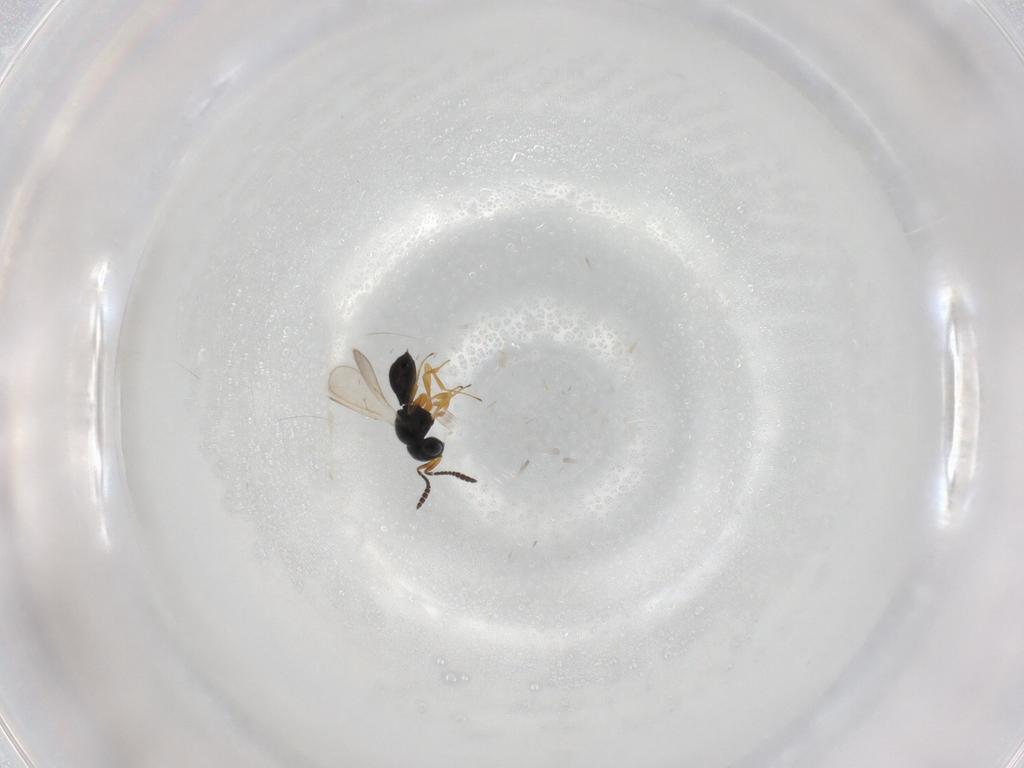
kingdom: Animalia
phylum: Arthropoda
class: Insecta
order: Hymenoptera
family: Scelionidae
